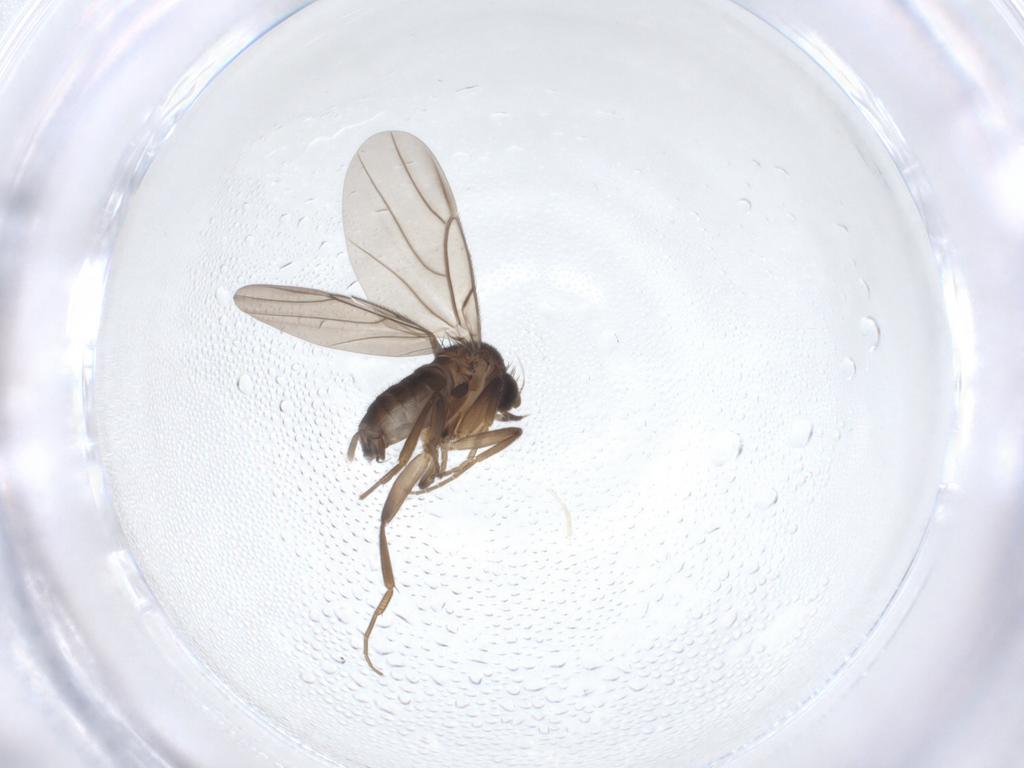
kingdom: Animalia
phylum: Arthropoda
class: Insecta
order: Diptera
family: Phoridae
